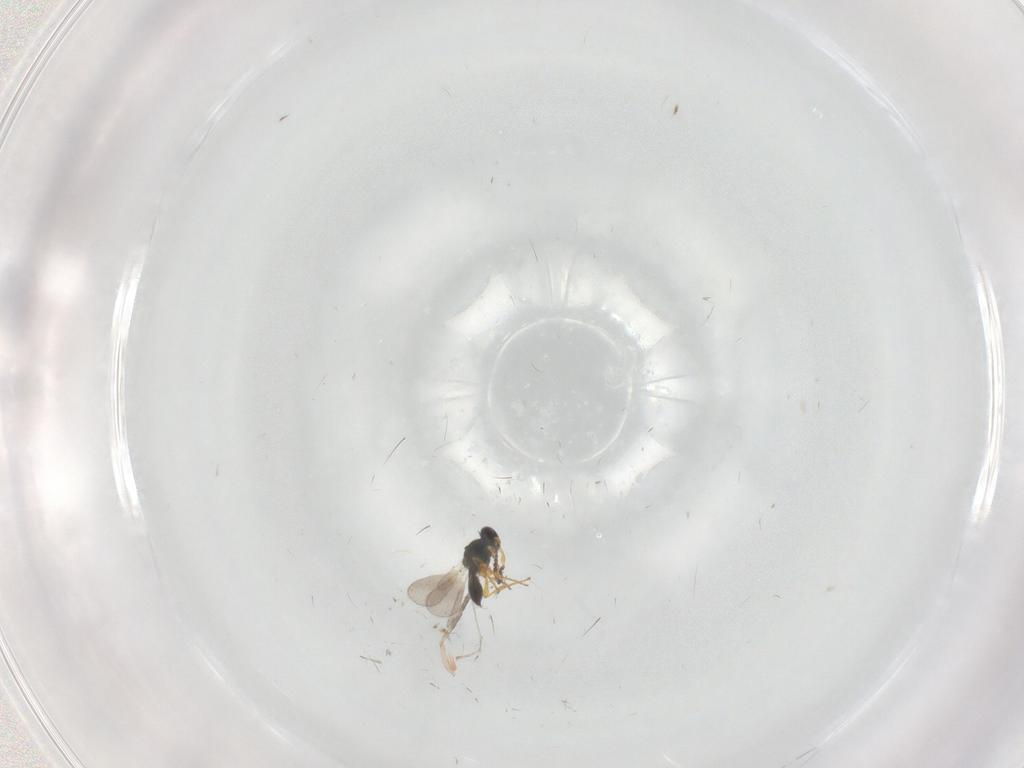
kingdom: Animalia
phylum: Arthropoda
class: Insecta
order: Hymenoptera
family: Platygastridae
